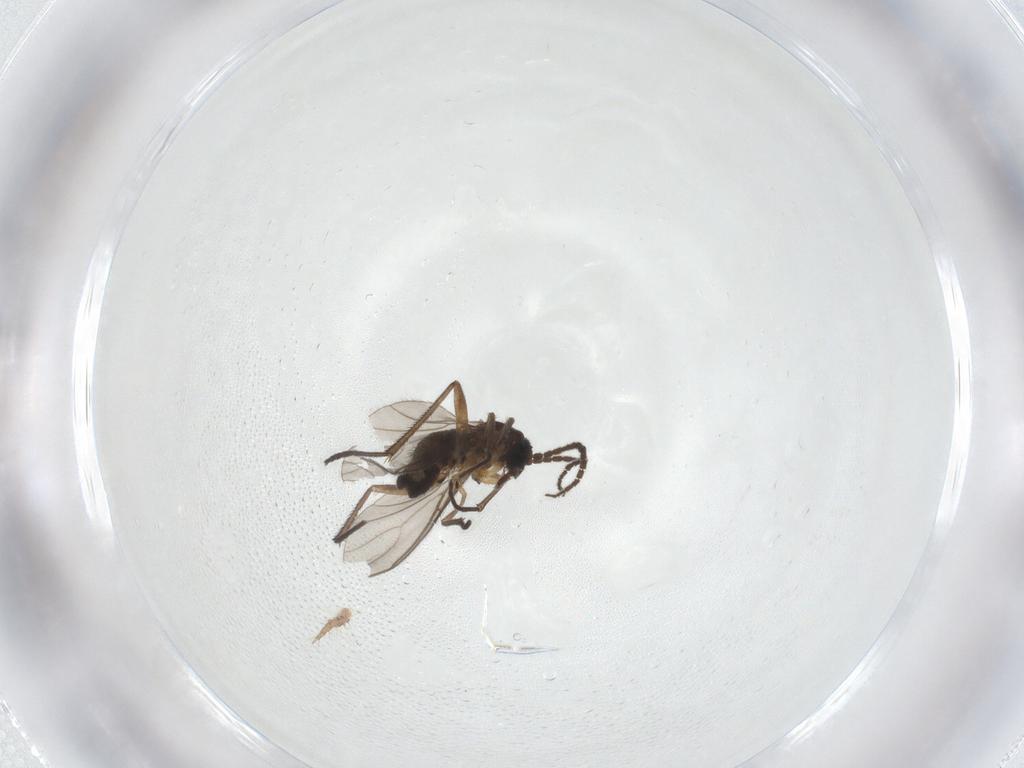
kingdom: Animalia
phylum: Arthropoda
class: Insecta
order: Diptera
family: Sciaridae
